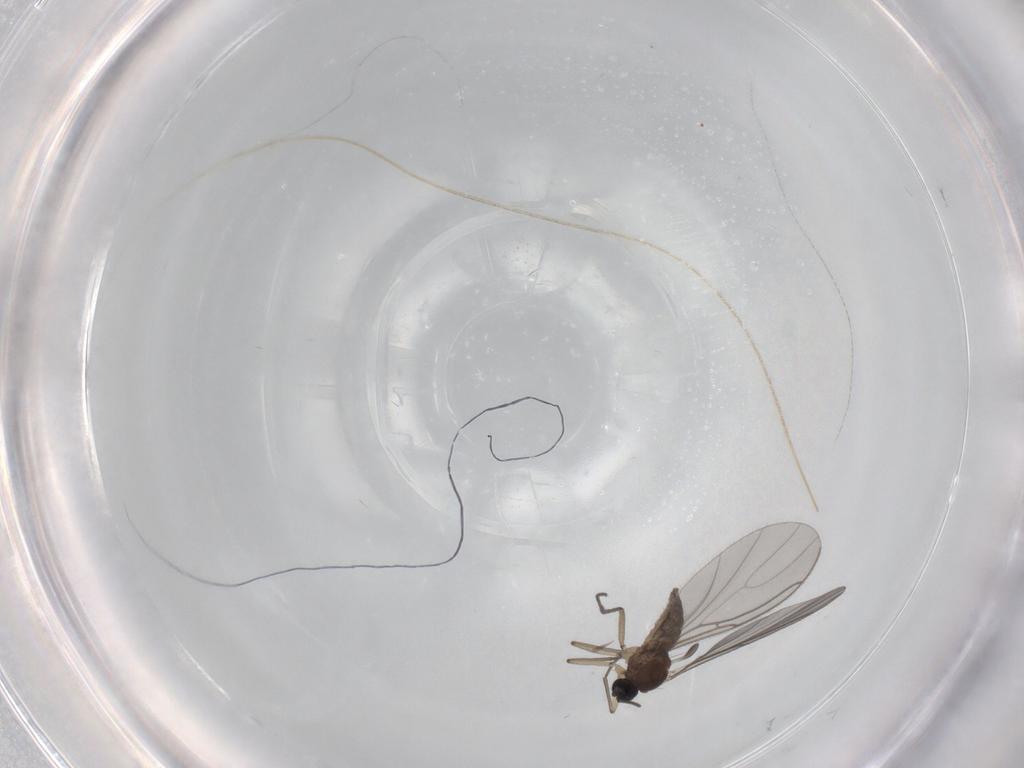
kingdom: Animalia
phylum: Arthropoda
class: Insecta
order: Diptera
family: Sciaridae
